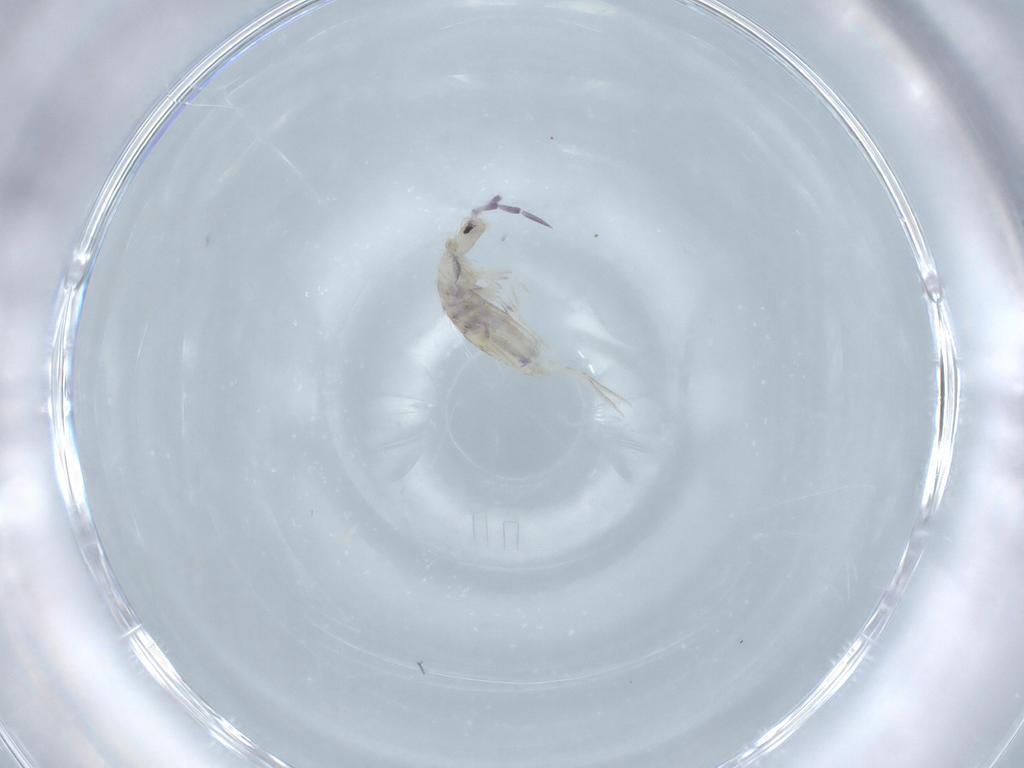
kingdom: Animalia
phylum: Arthropoda
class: Collembola
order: Poduromorpha
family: Hypogastruridae
